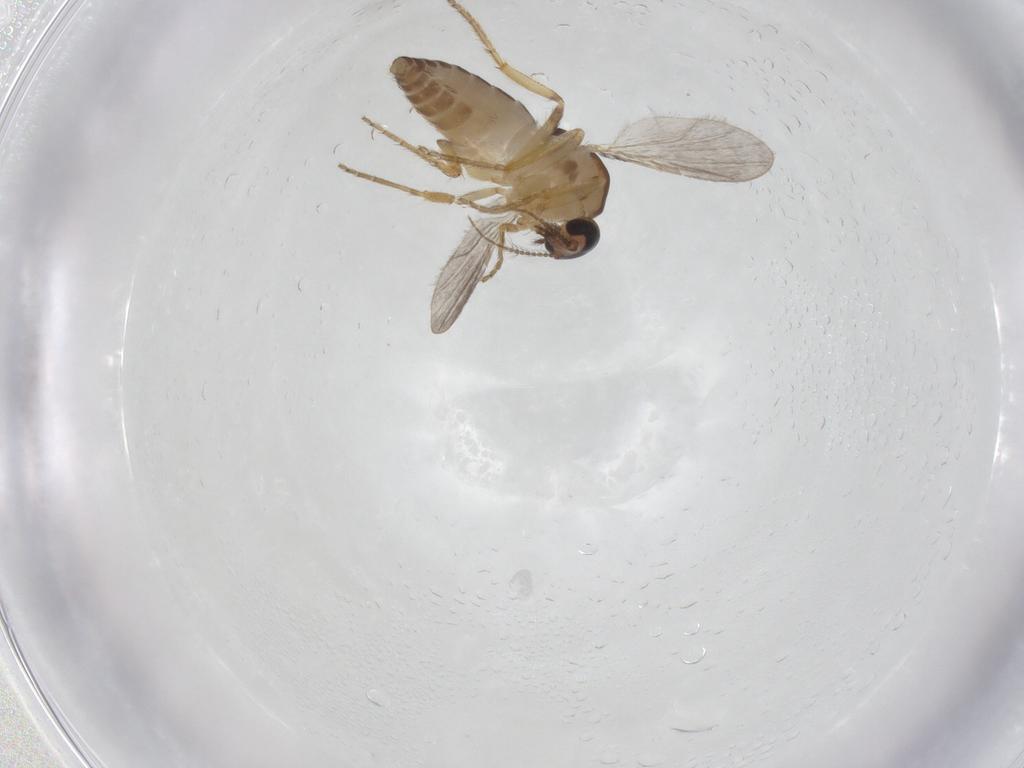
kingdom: Animalia
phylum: Arthropoda
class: Insecta
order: Diptera
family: Ceratopogonidae
